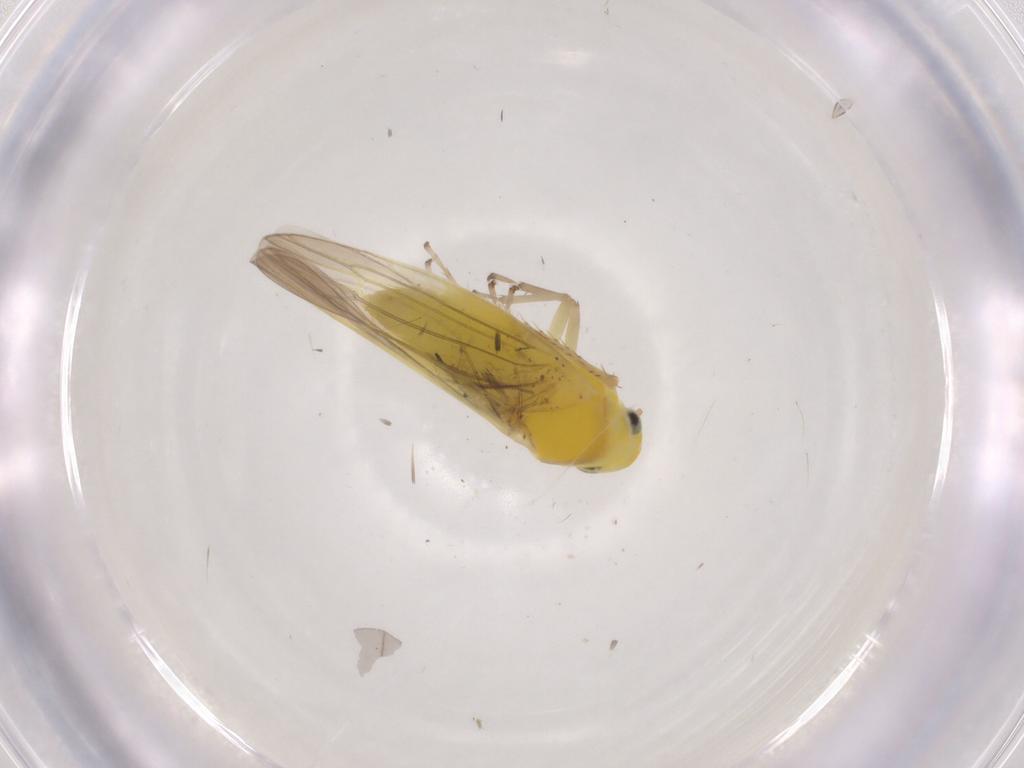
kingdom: Animalia
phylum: Arthropoda
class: Insecta
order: Hemiptera
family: Cicadellidae
